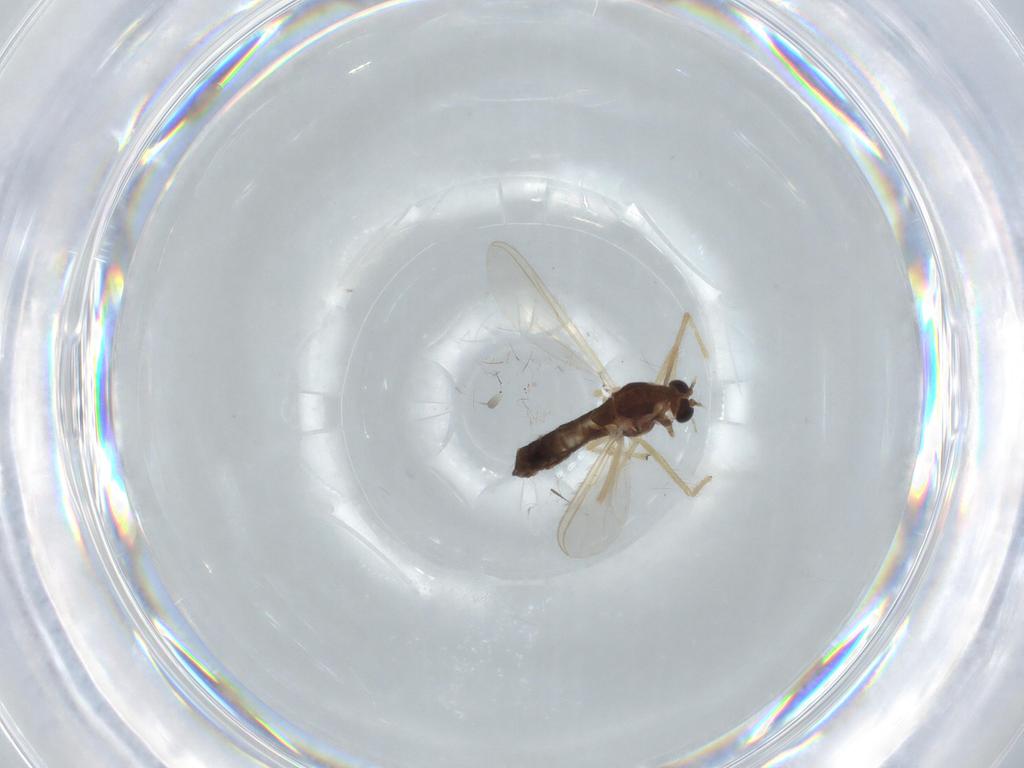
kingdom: Animalia
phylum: Arthropoda
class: Insecta
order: Diptera
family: Chironomidae
